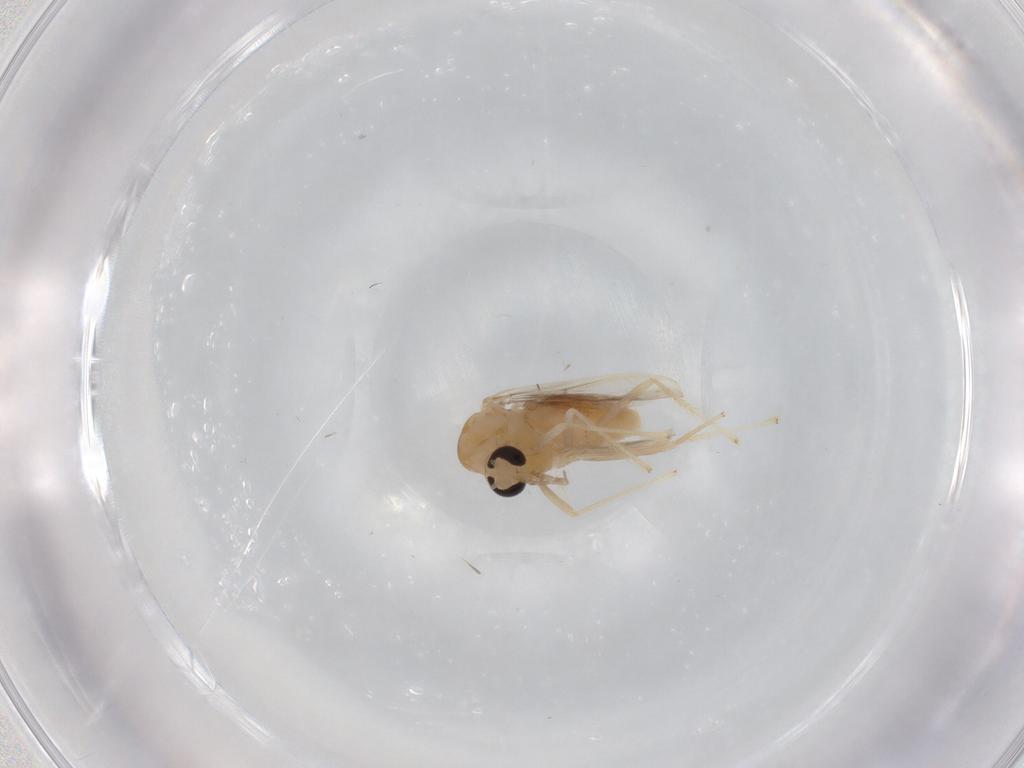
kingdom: Animalia
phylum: Arthropoda
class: Insecta
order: Diptera
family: Chironomidae
